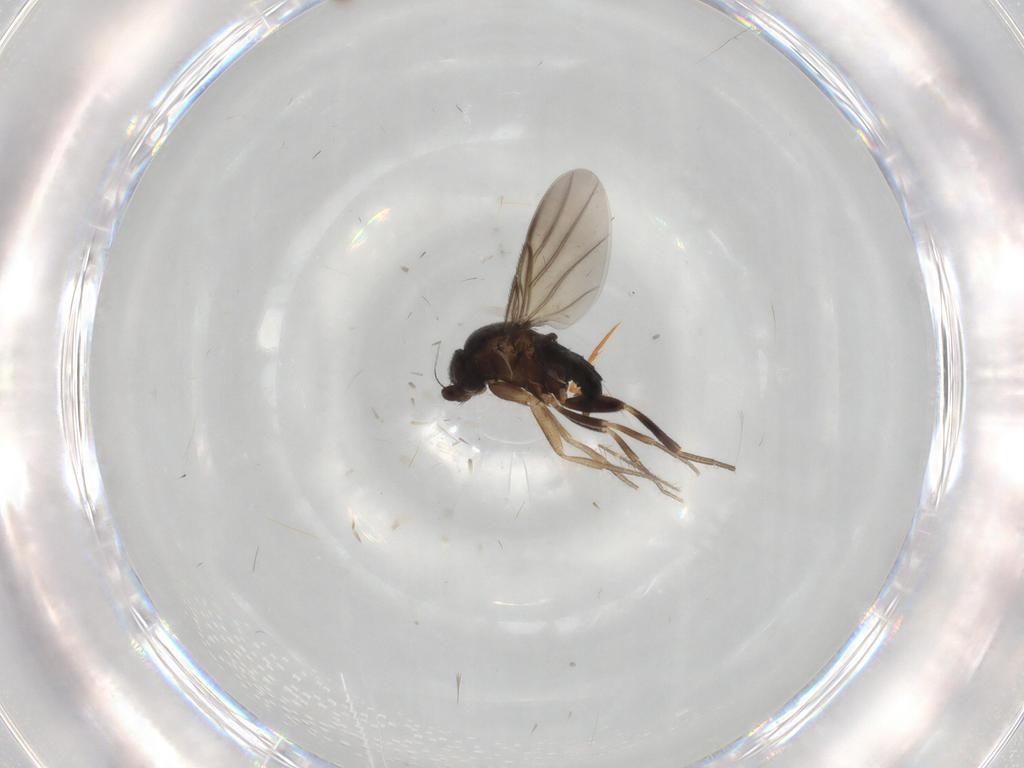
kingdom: Animalia
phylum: Arthropoda
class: Insecta
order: Diptera
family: Cecidomyiidae
